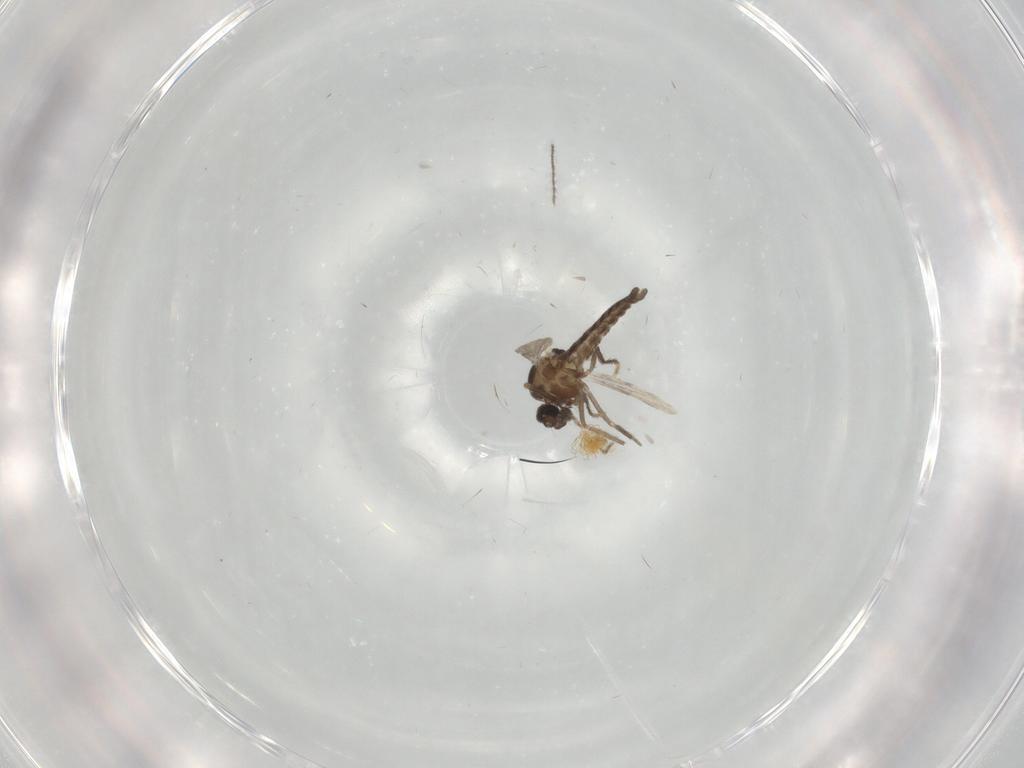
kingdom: Animalia
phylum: Arthropoda
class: Insecta
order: Diptera
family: Ceratopogonidae
